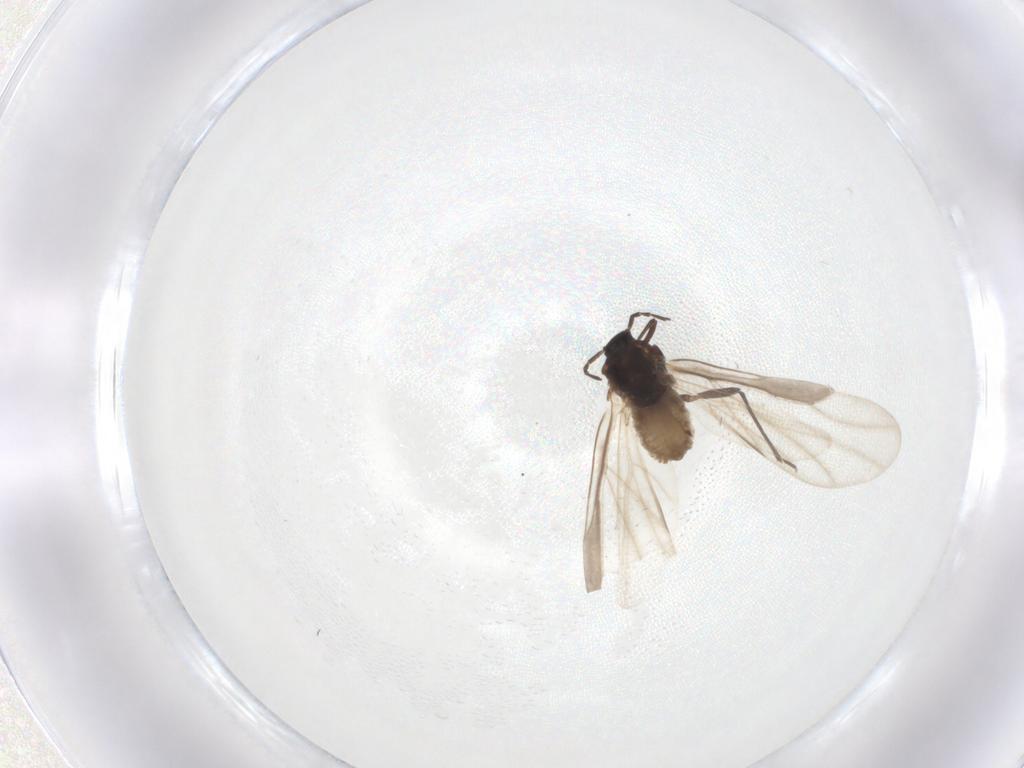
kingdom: Animalia
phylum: Arthropoda
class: Insecta
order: Hemiptera
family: Aphididae
